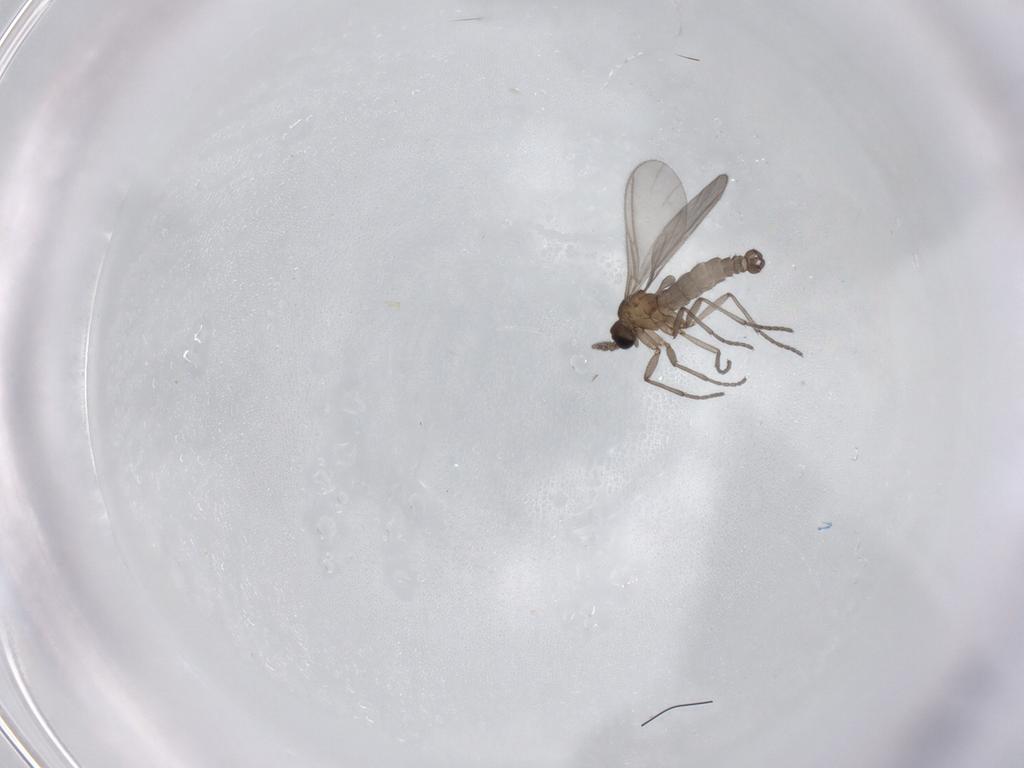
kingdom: Animalia
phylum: Arthropoda
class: Insecta
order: Diptera
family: Sciaridae
